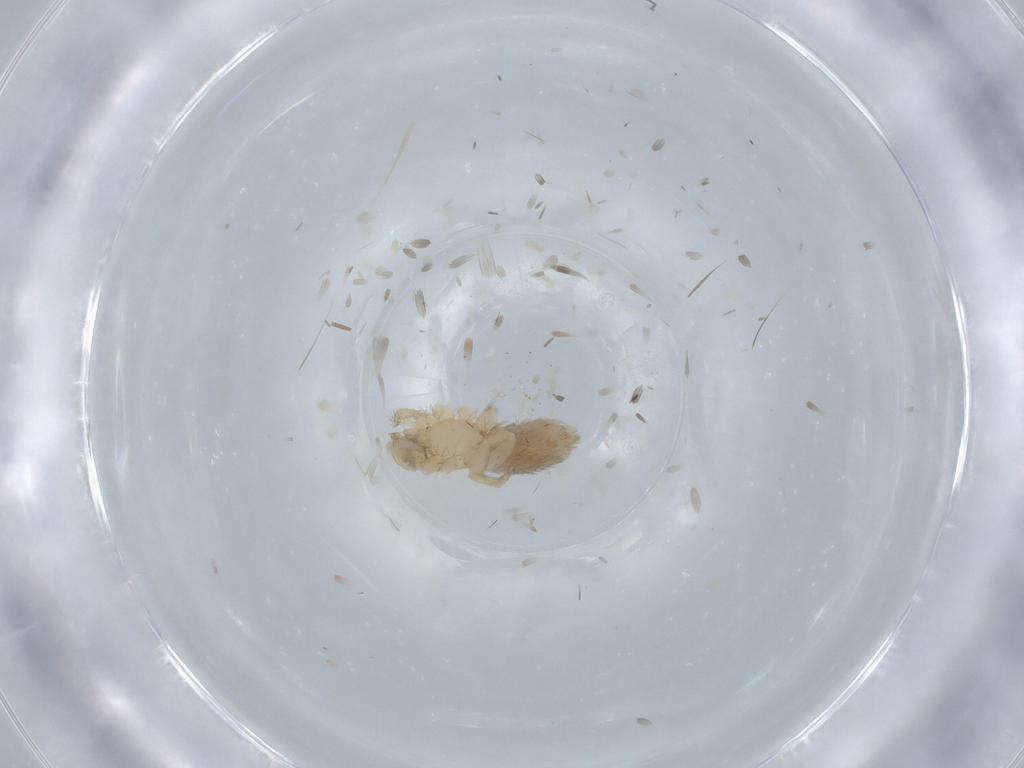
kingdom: Animalia
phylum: Arthropoda
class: Arachnida
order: Araneae
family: Oonopidae
